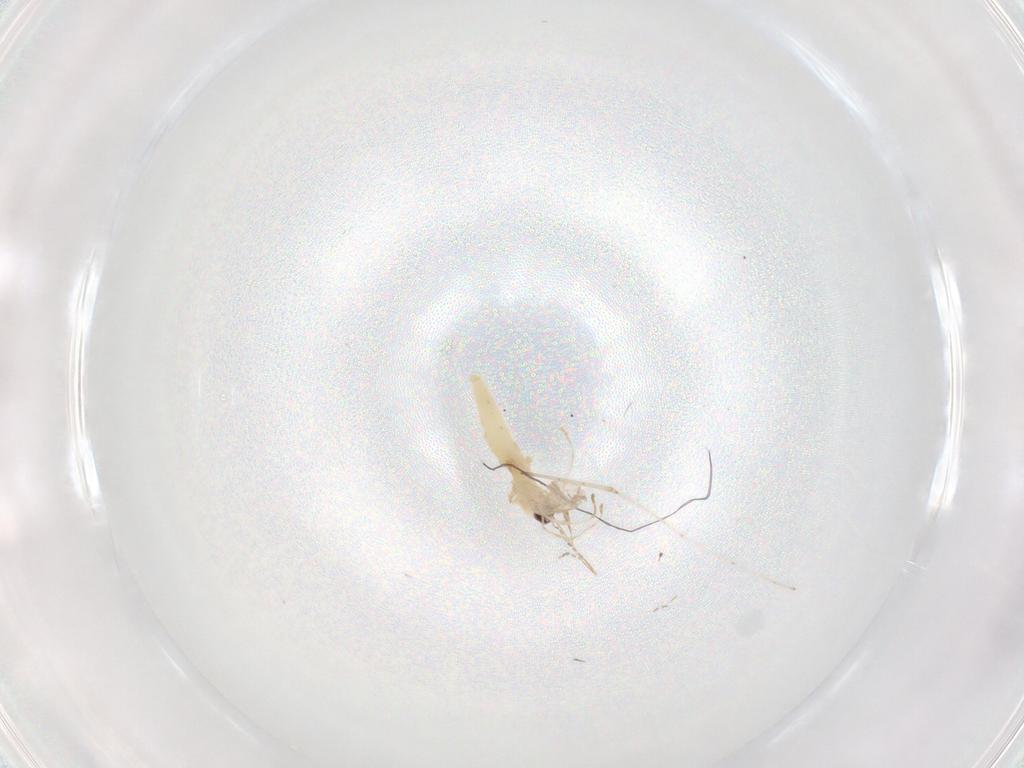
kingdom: Animalia
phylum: Arthropoda
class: Insecta
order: Diptera
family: Cecidomyiidae
